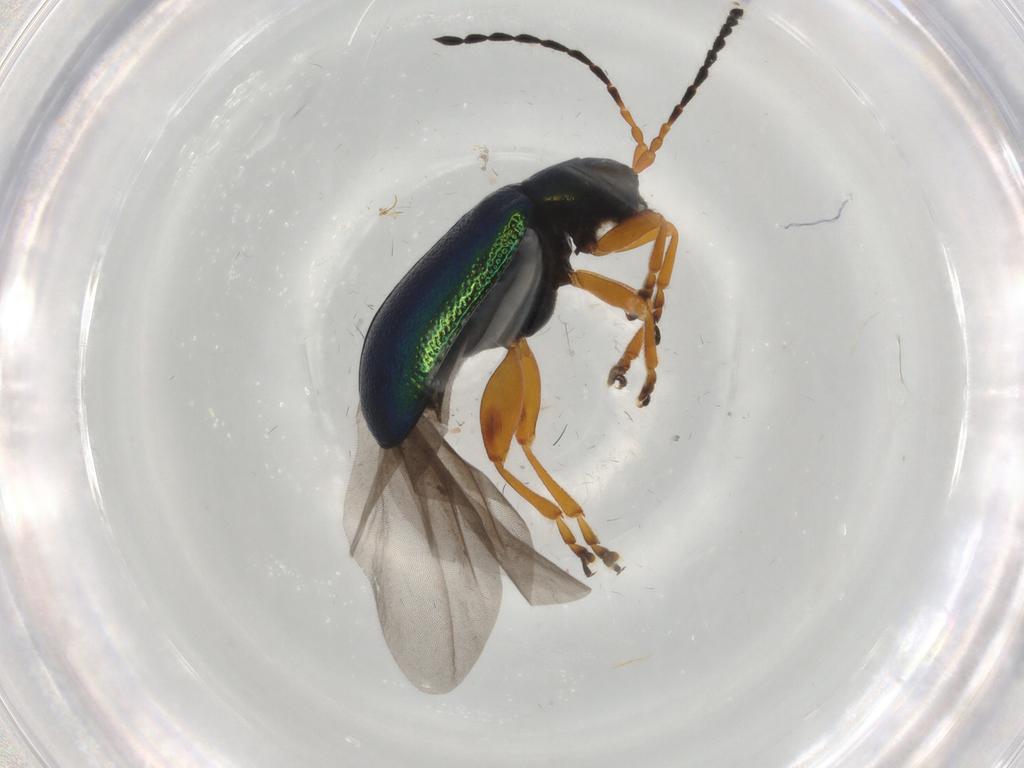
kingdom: Animalia
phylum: Arthropoda
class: Insecta
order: Coleoptera
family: Chrysomelidae
